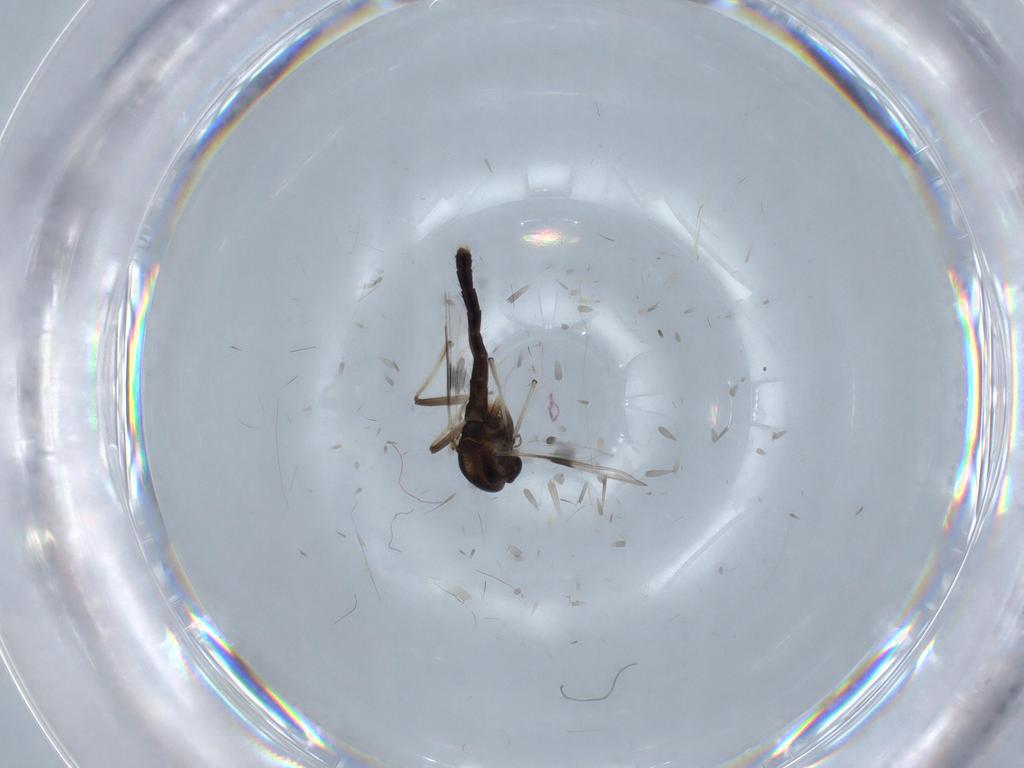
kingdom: Animalia
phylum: Arthropoda
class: Insecta
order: Diptera
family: Chironomidae
